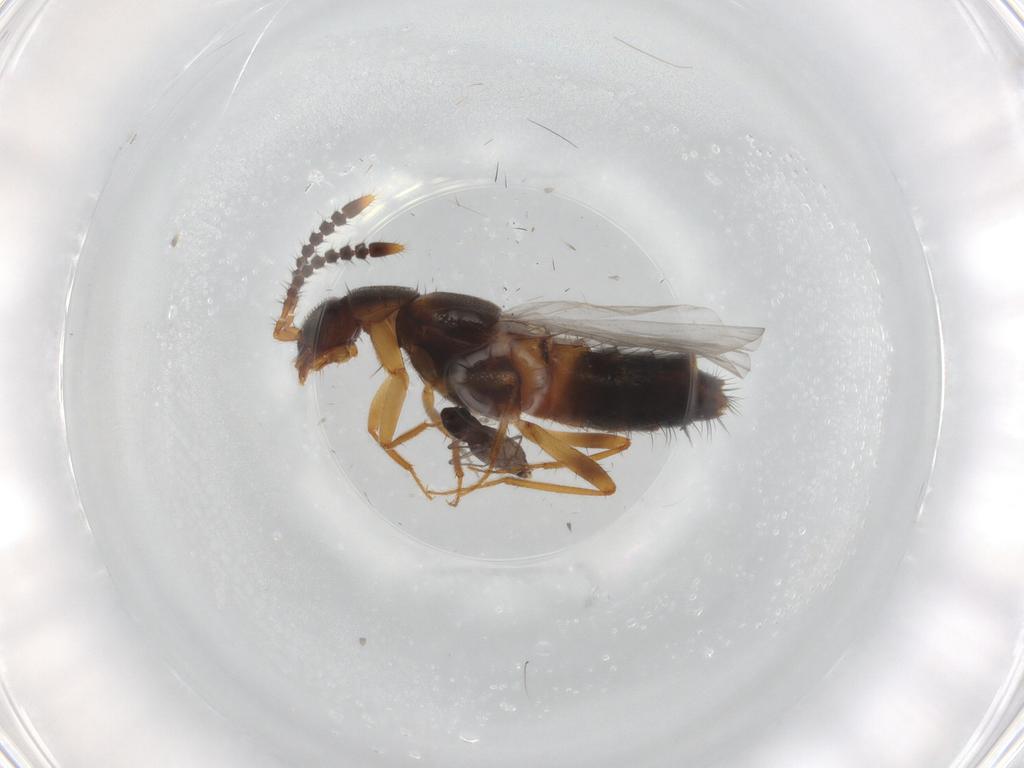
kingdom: Animalia
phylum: Arthropoda
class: Insecta
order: Diptera
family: Chironomidae
